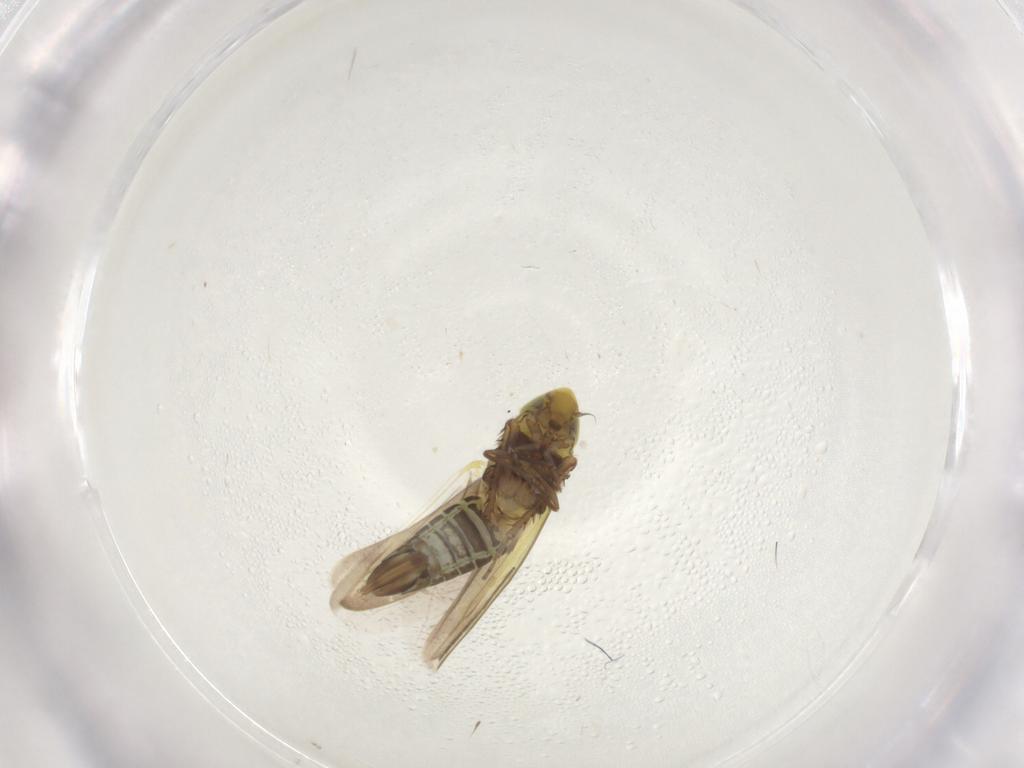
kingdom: Animalia
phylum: Arthropoda
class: Insecta
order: Hemiptera
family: Cicadellidae
